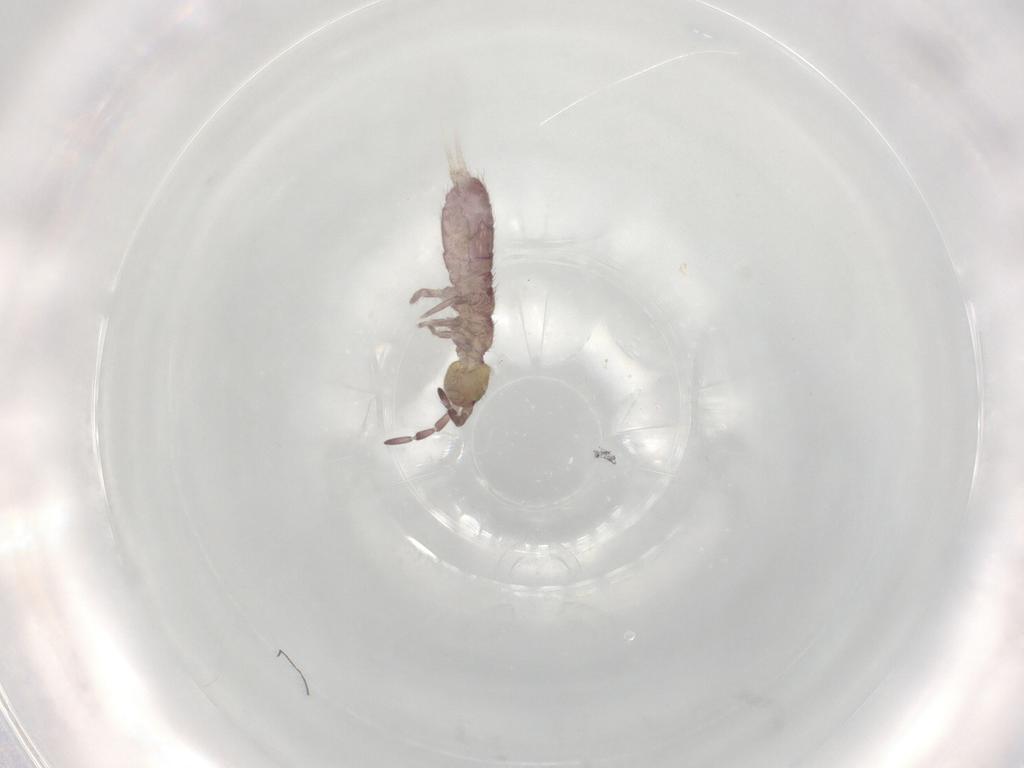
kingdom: Animalia
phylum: Arthropoda
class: Collembola
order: Entomobryomorpha
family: Isotomidae
